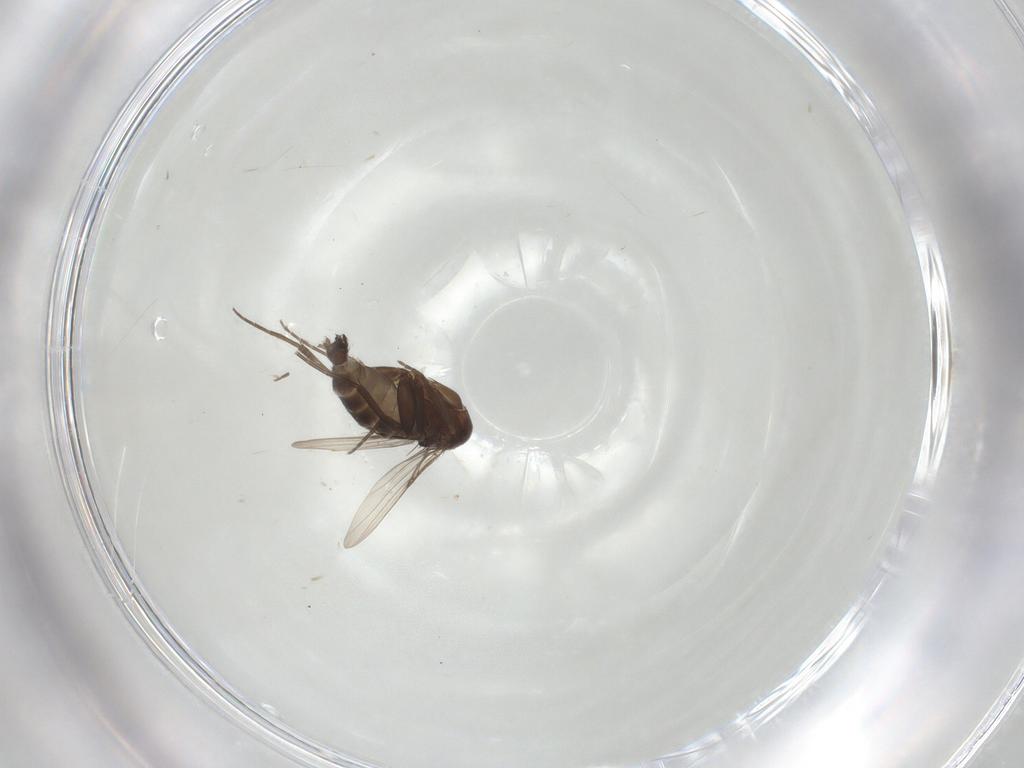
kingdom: Animalia
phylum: Arthropoda
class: Insecta
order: Diptera
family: Phoridae
